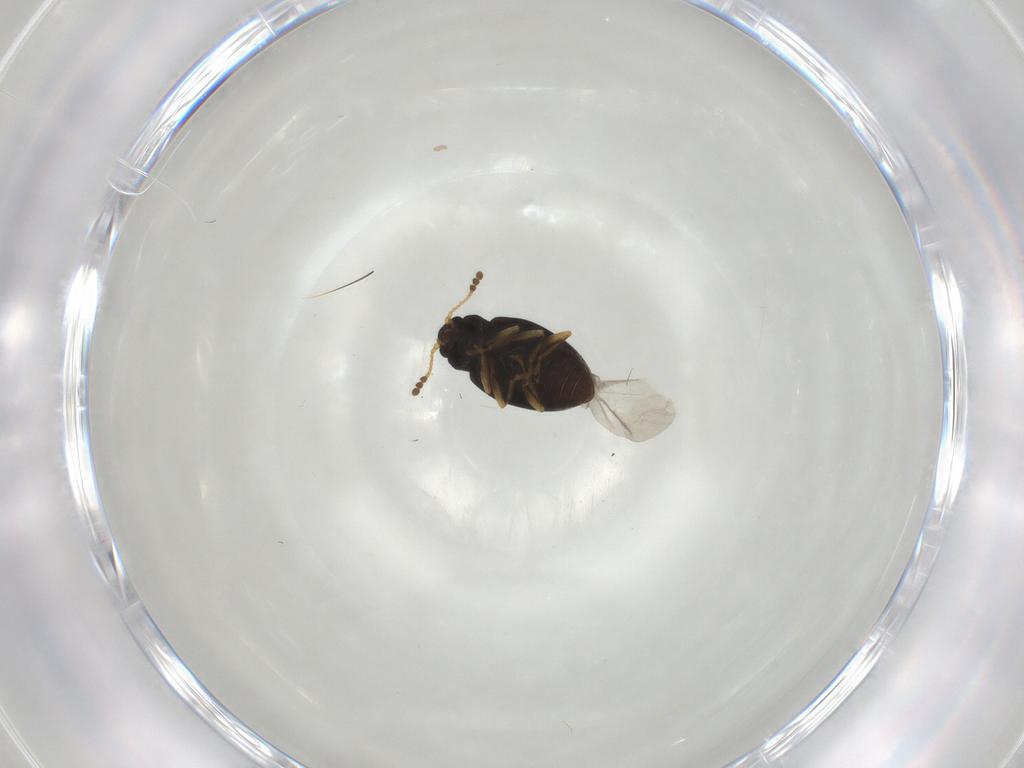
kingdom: Animalia
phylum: Arthropoda
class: Insecta
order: Coleoptera
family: Erotylidae
